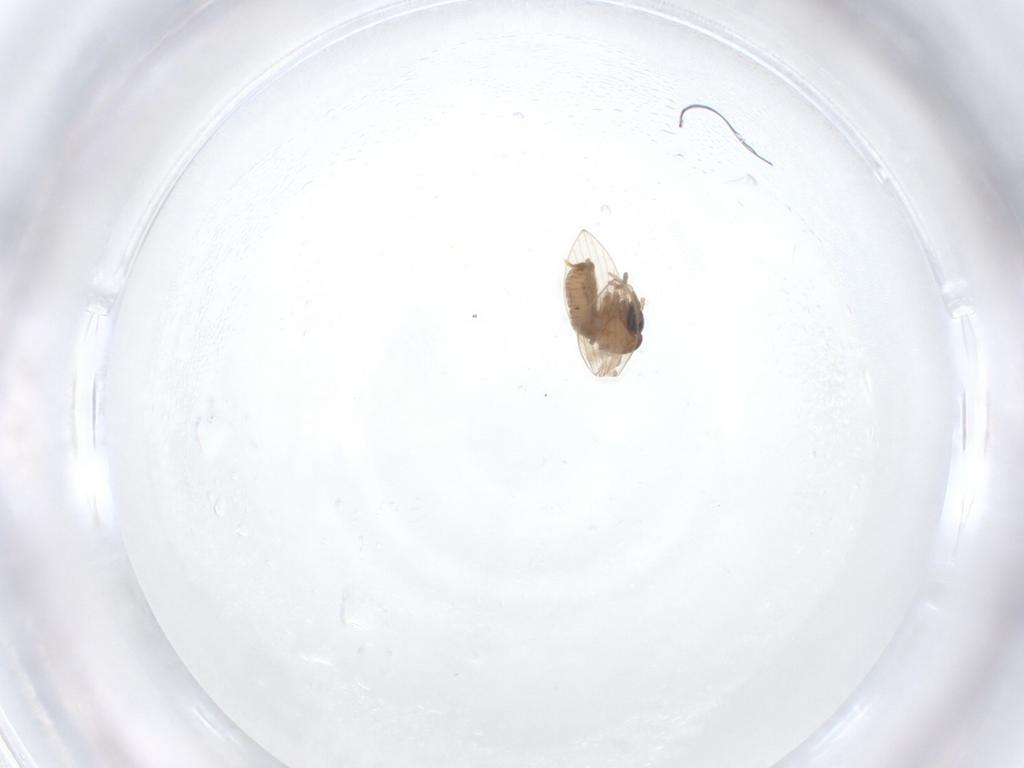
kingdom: Animalia
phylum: Arthropoda
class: Insecta
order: Diptera
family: Psychodidae
